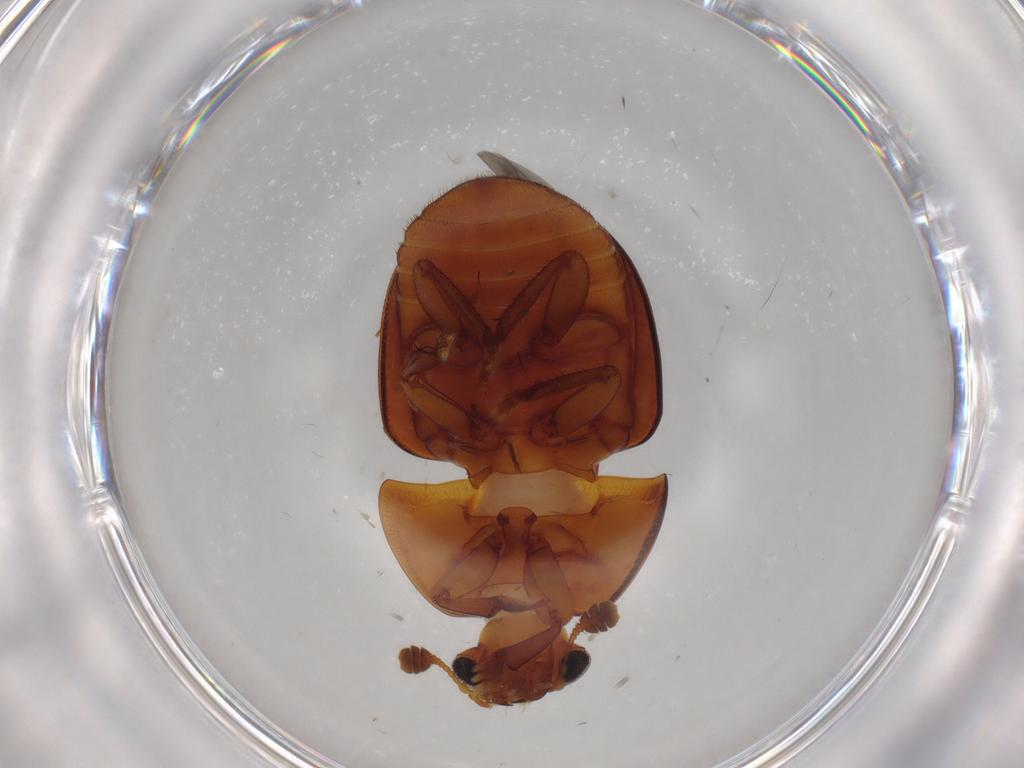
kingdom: Animalia
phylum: Arthropoda
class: Insecta
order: Coleoptera
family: Nitidulidae
